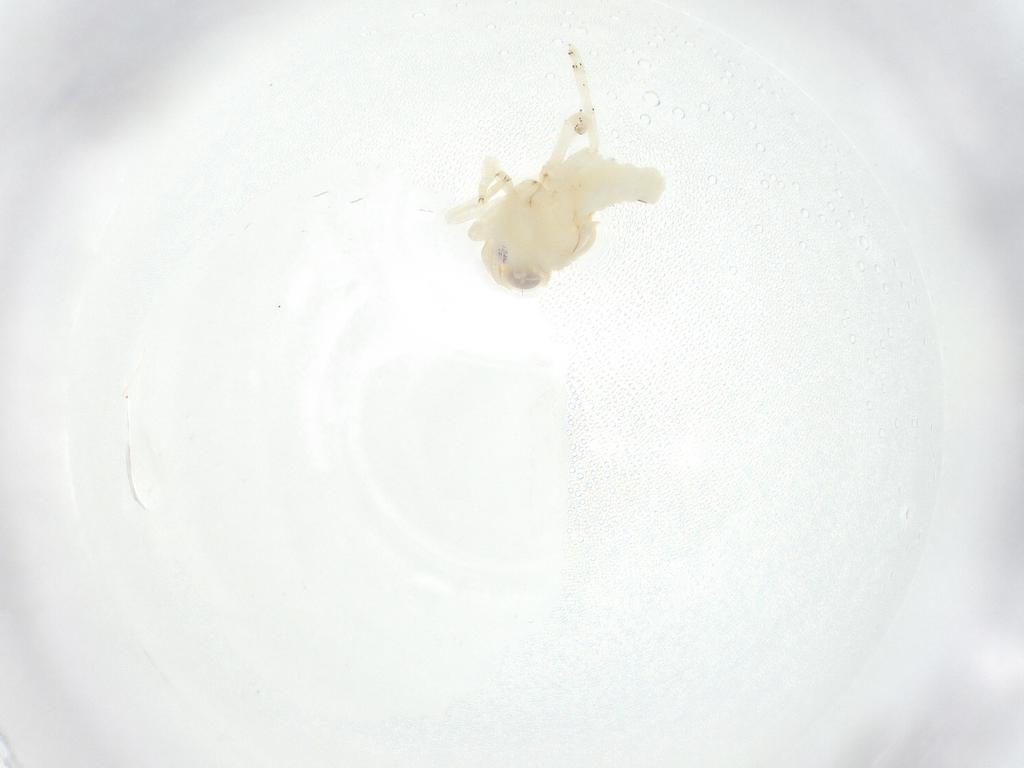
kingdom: Animalia
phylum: Arthropoda
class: Insecta
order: Hemiptera
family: Nogodinidae
